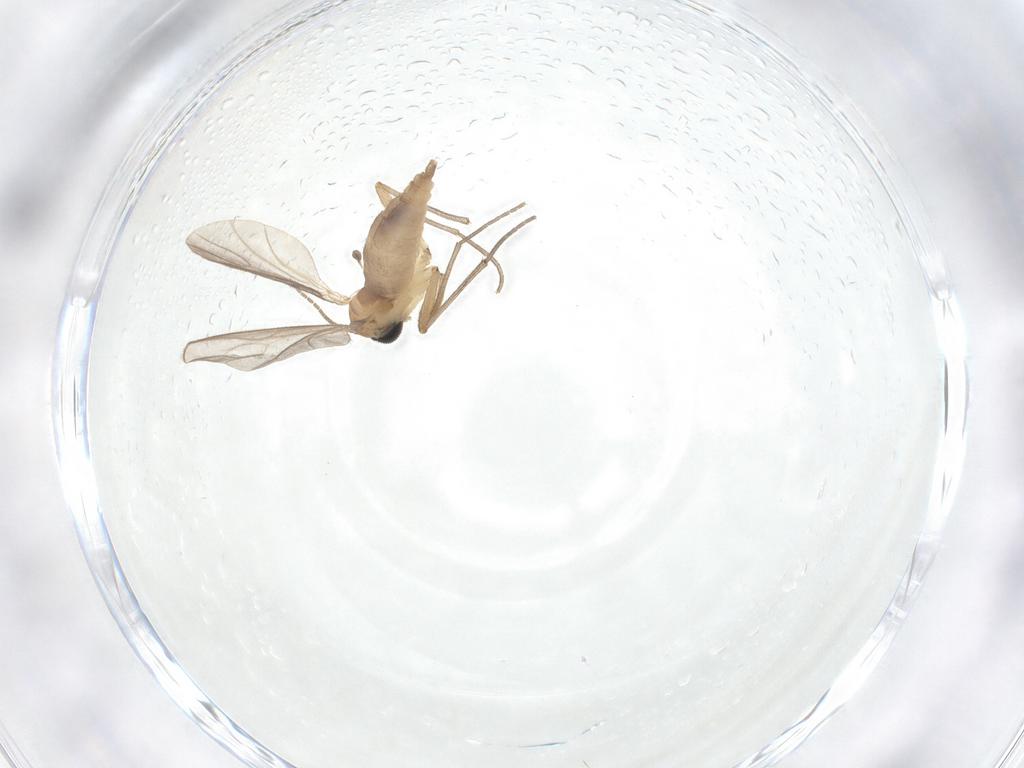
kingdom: Animalia
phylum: Arthropoda
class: Insecta
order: Diptera
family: Sciaridae
